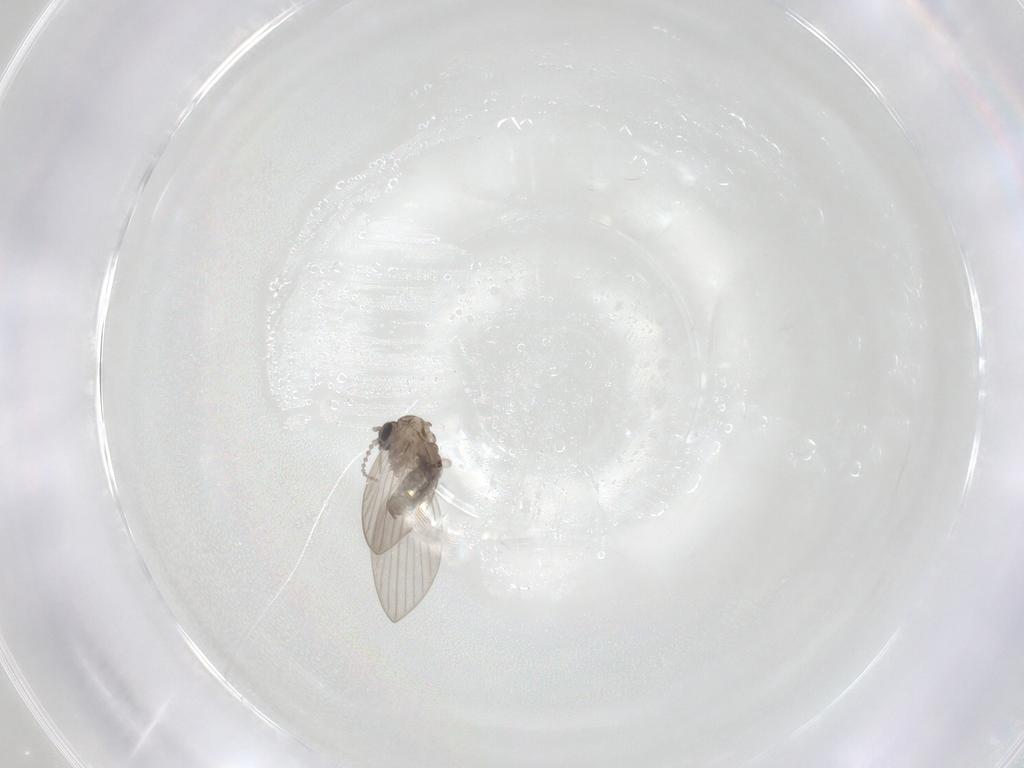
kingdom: Animalia
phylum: Arthropoda
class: Insecta
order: Diptera
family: Psychodidae
